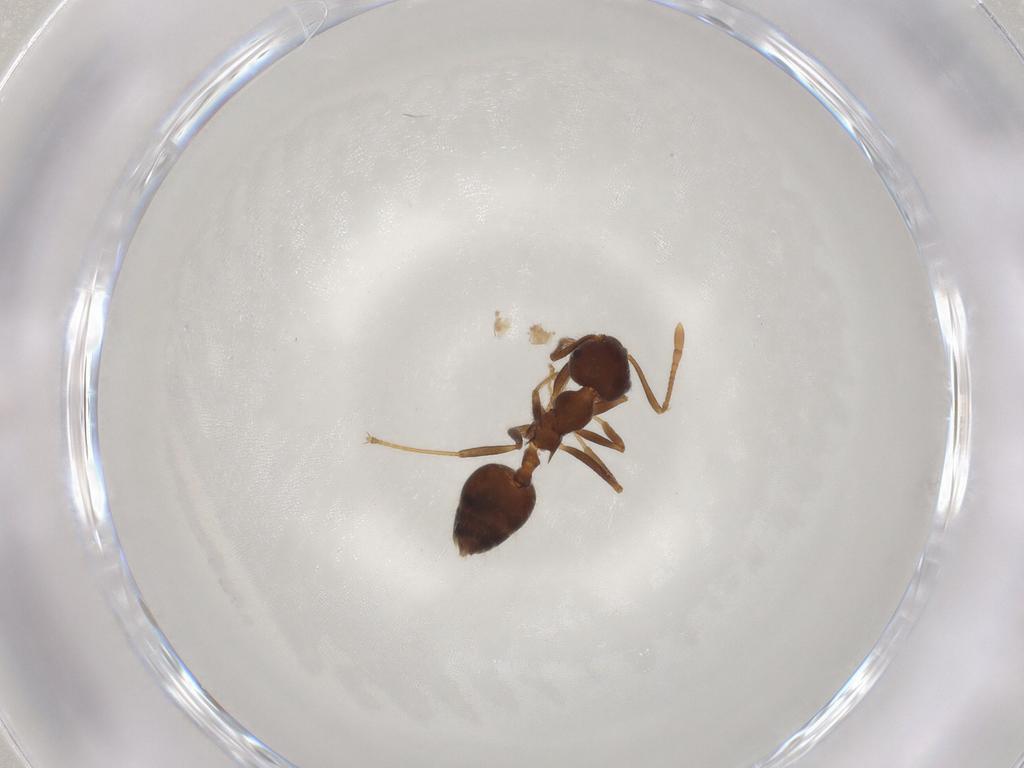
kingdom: Animalia
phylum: Arthropoda
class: Insecta
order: Hymenoptera
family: Formicidae
